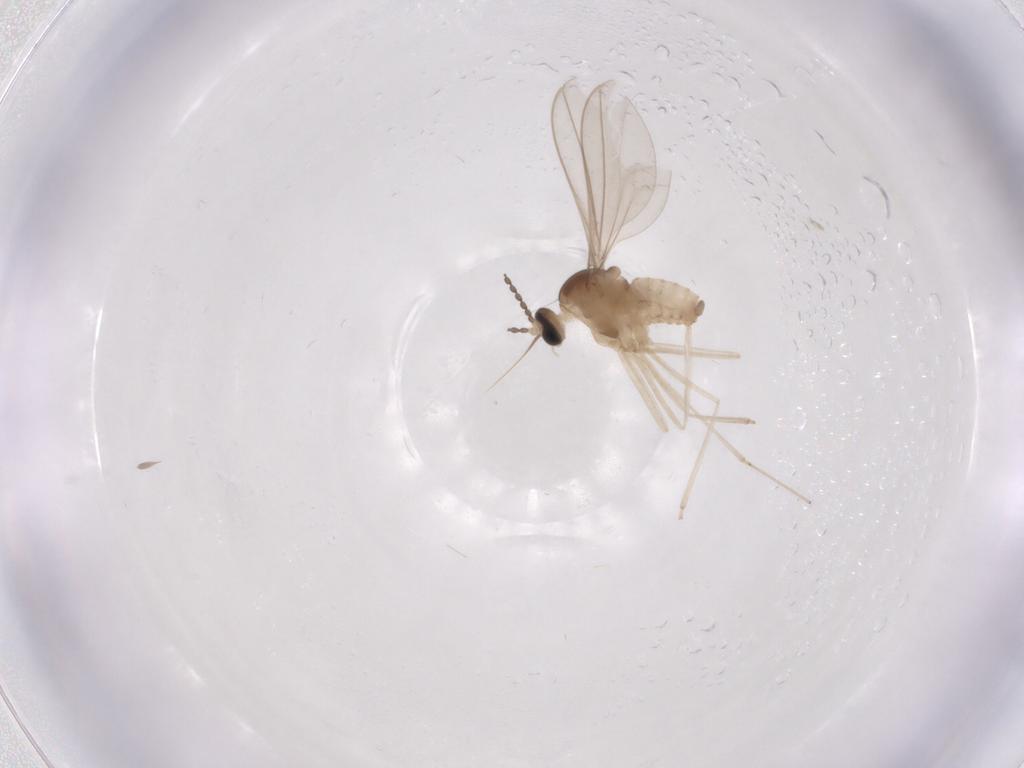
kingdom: Animalia
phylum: Arthropoda
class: Insecta
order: Diptera
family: Cecidomyiidae
